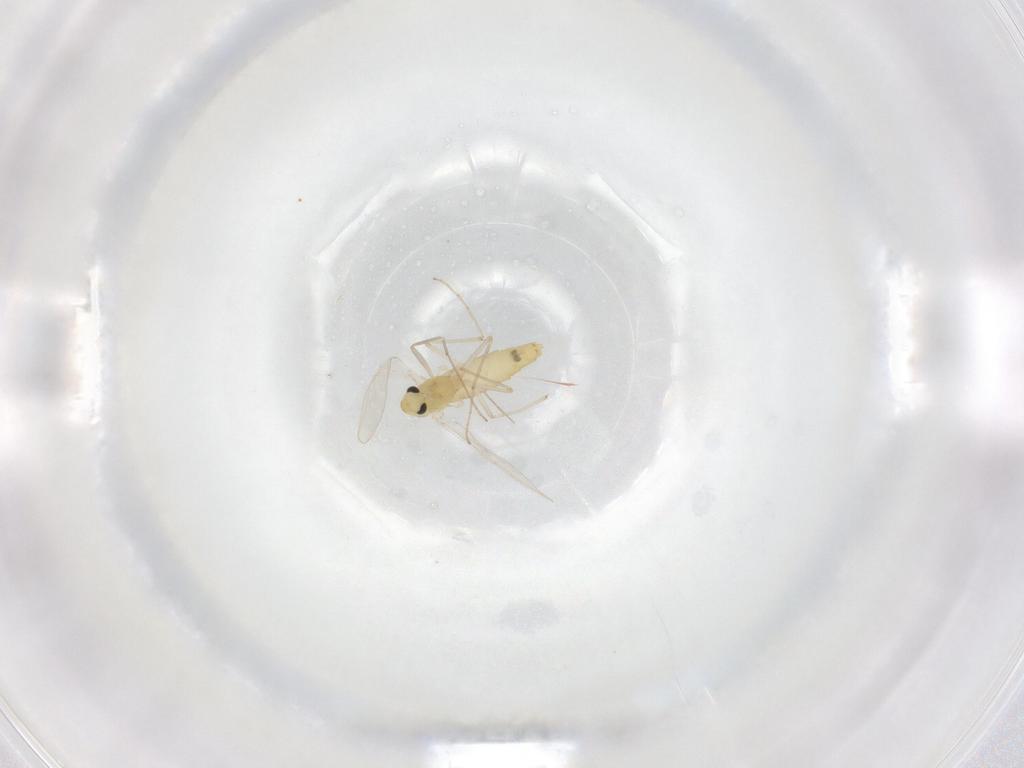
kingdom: Animalia
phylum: Arthropoda
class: Insecta
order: Diptera
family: Chironomidae
